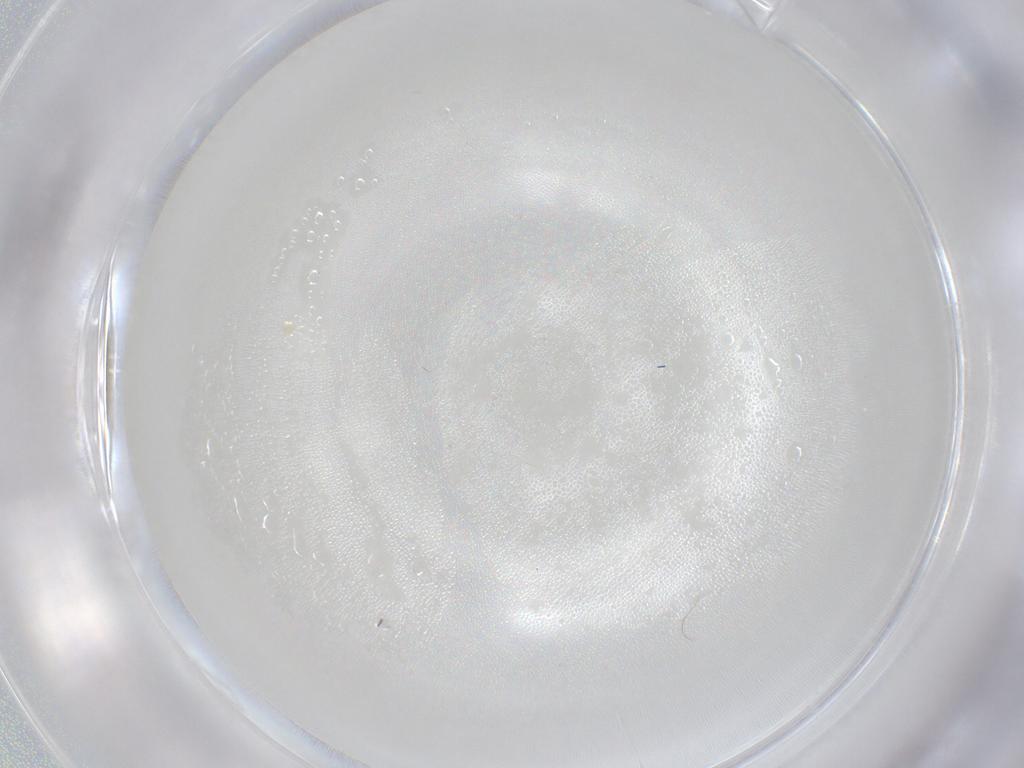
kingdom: Animalia
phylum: Arthropoda
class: Insecta
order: Diptera
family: Cecidomyiidae
